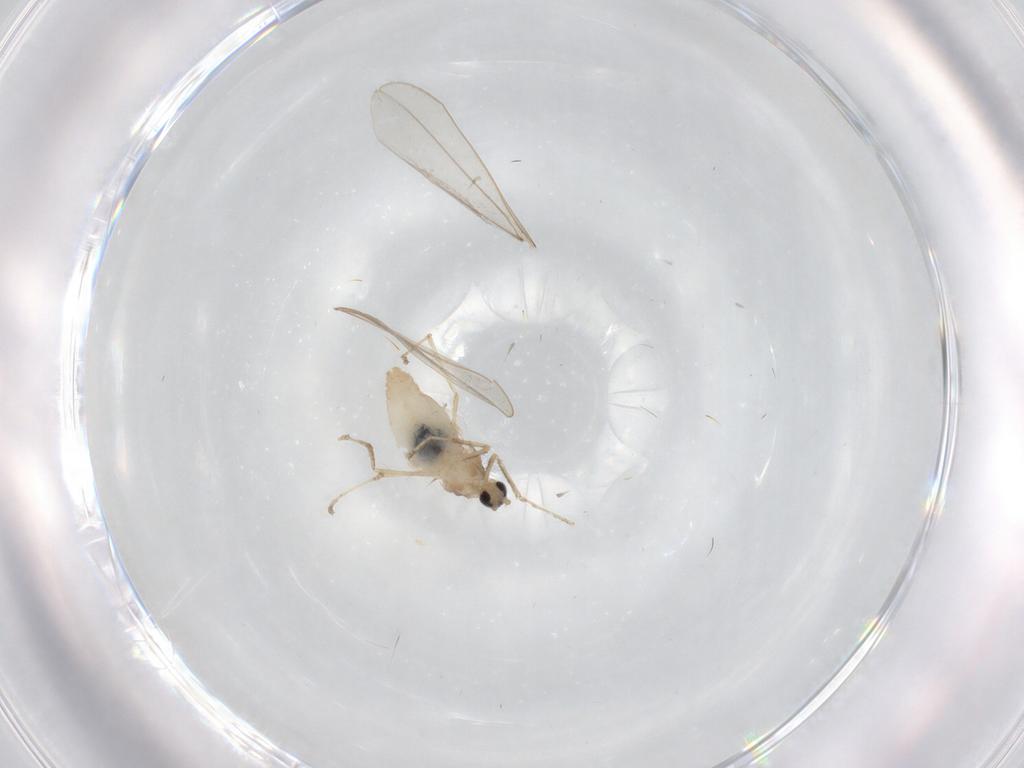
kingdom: Animalia
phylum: Arthropoda
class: Insecta
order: Diptera
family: Cecidomyiidae
